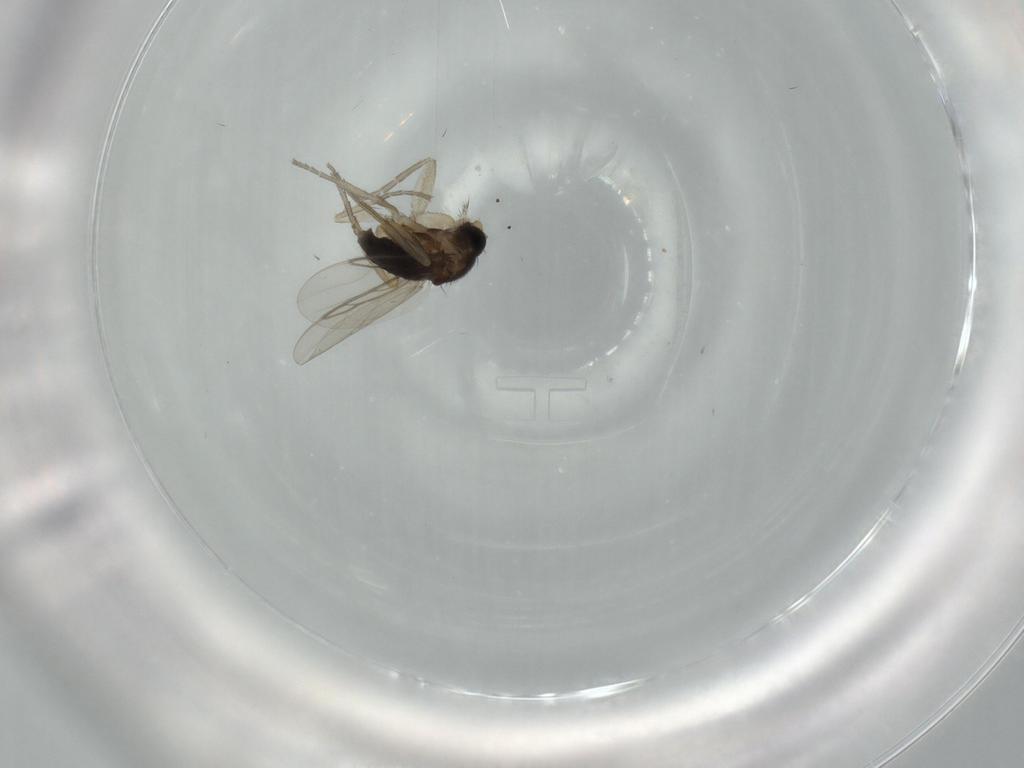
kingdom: Animalia
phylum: Arthropoda
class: Insecta
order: Diptera
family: Phoridae
